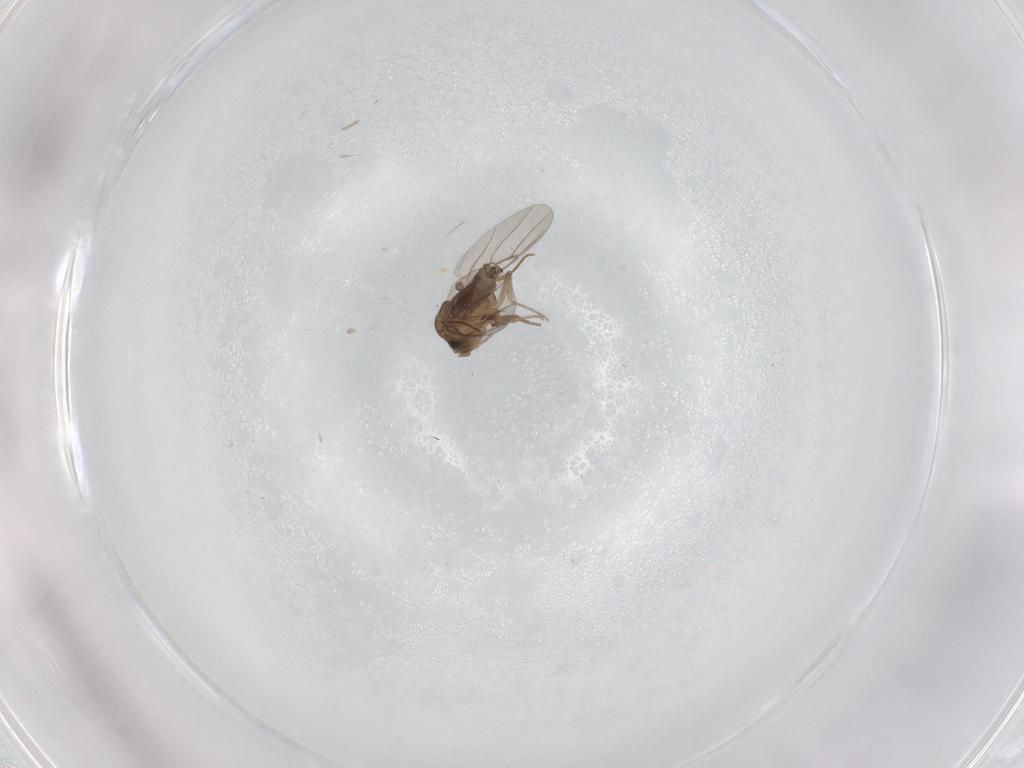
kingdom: Animalia
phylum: Arthropoda
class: Insecta
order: Diptera
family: Phoridae
